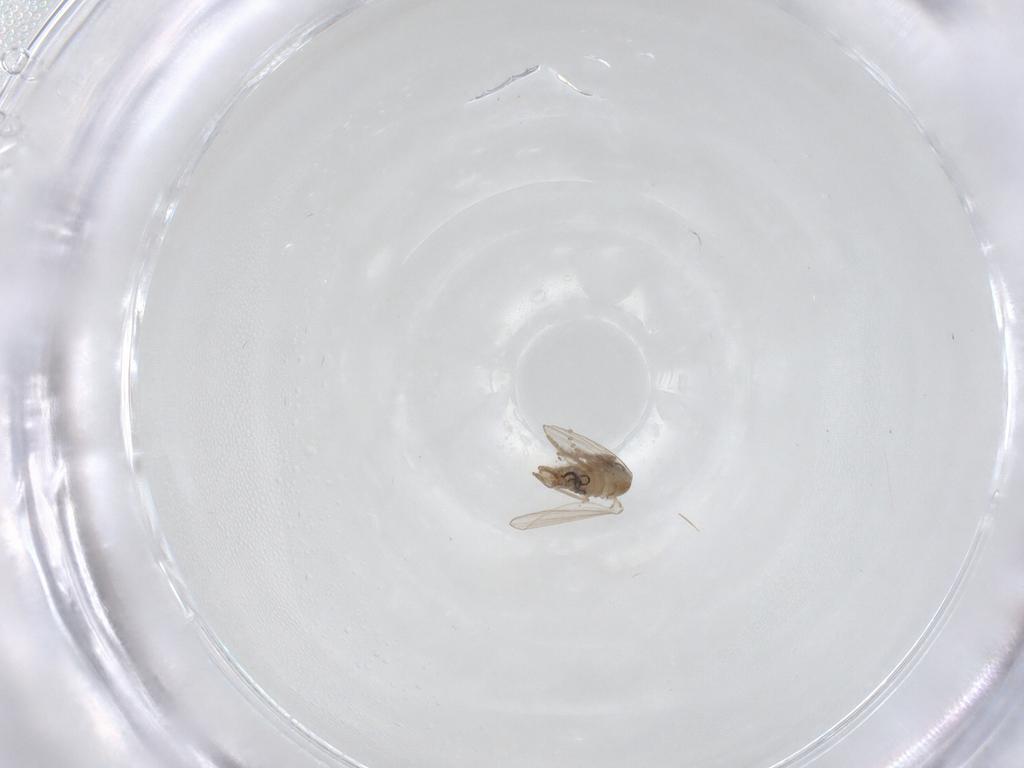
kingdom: Animalia
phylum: Arthropoda
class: Insecta
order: Diptera
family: Psychodidae
